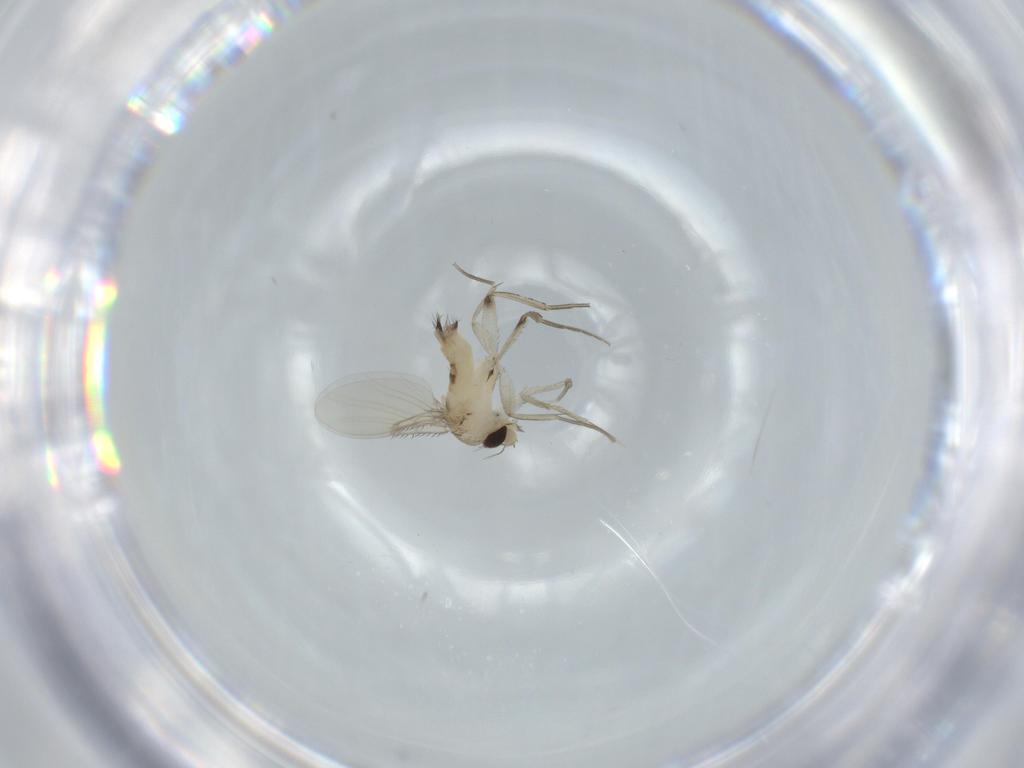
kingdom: Animalia
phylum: Arthropoda
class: Insecta
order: Diptera
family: Phoridae
